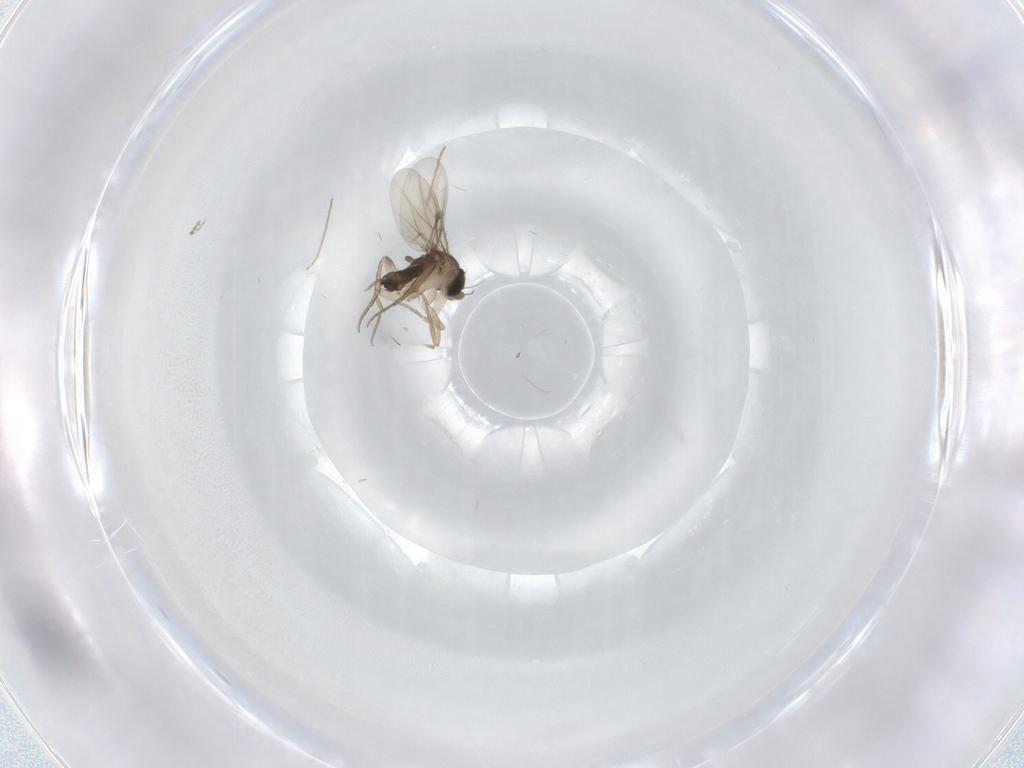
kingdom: Animalia
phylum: Arthropoda
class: Insecta
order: Diptera
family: Phoridae
